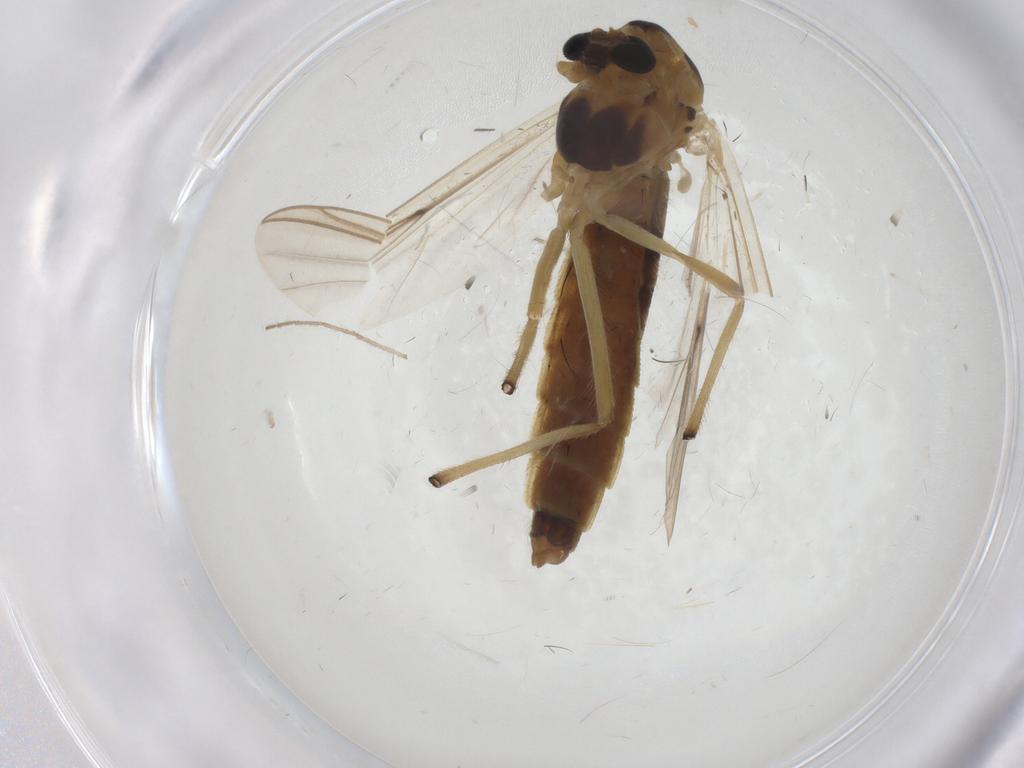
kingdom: Animalia
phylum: Arthropoda
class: Insecta
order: Diptera
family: Chironomidae
